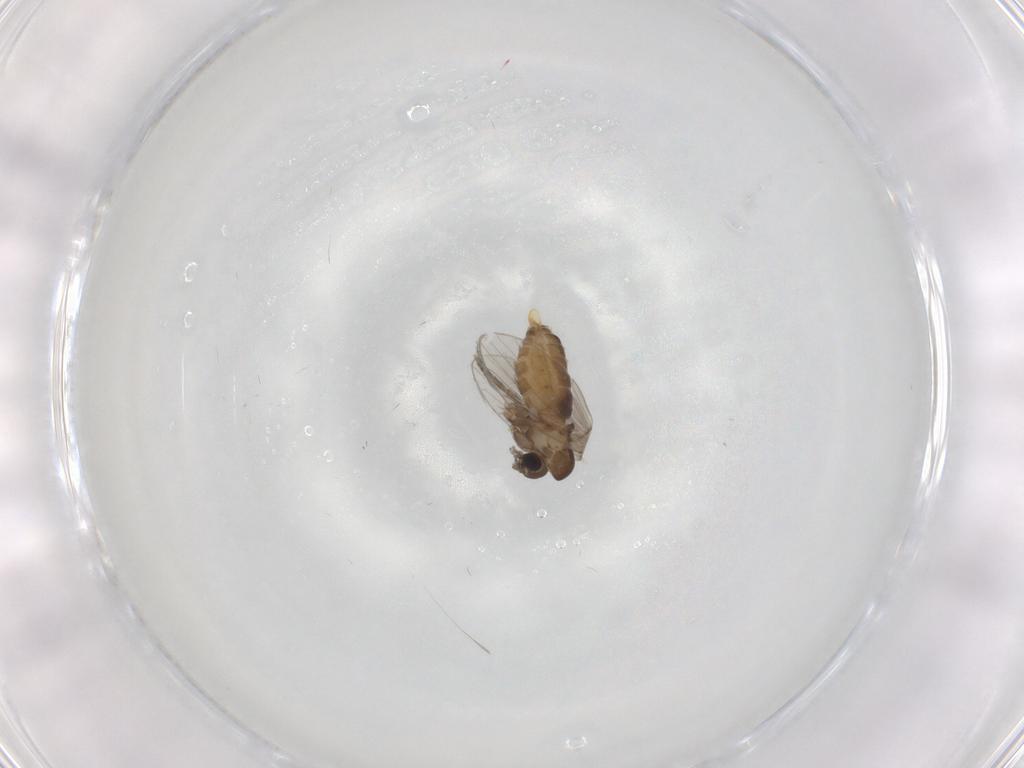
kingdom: Animalia
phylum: Arthropoda
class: Insecta
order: Diptera
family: Psychodidae
